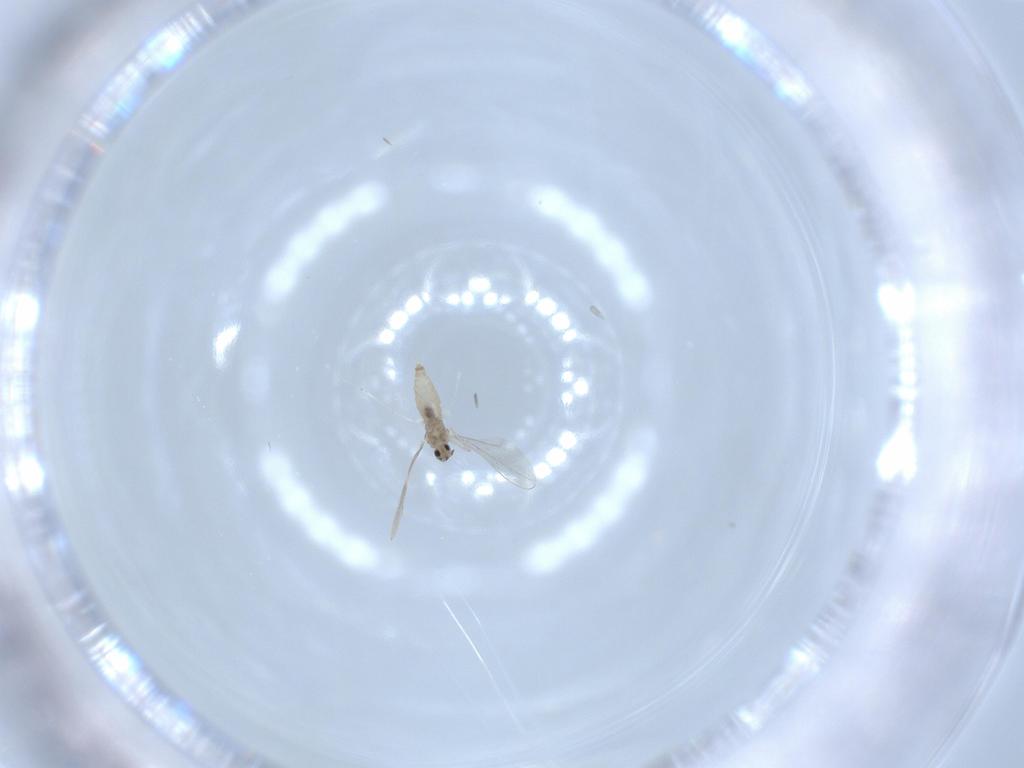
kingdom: Animalia
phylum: Arthropoda
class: Insecta
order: Diptera
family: Cecidomyiidae
